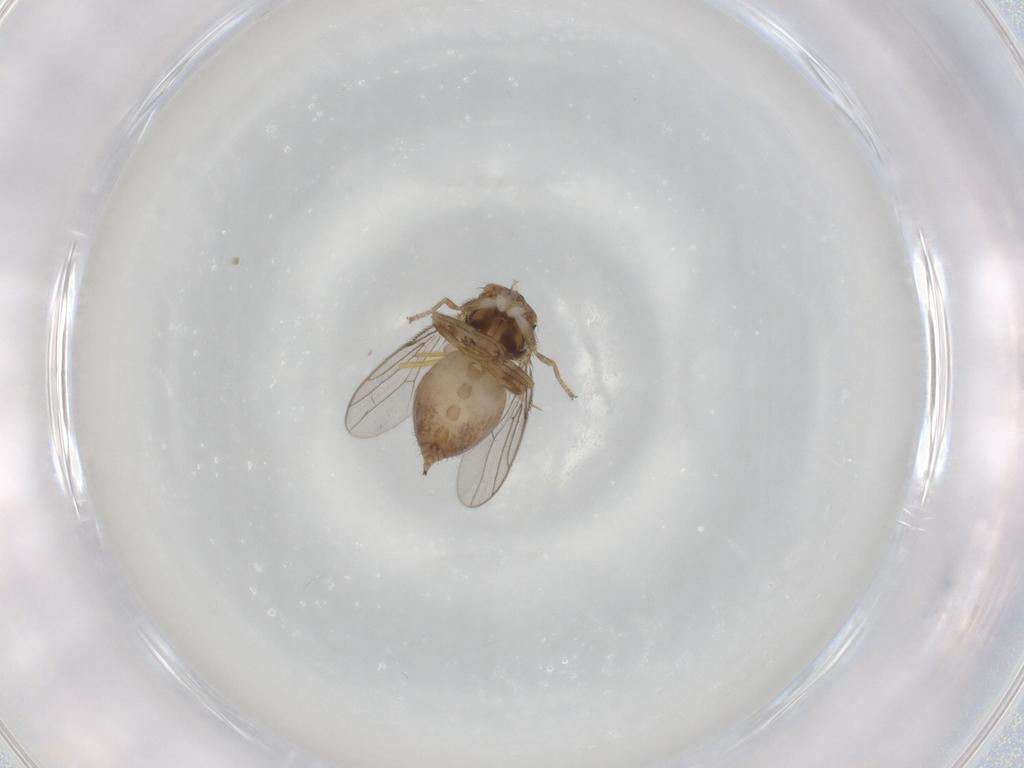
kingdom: Animalia
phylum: Arthropoda
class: Insecta
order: Diptera
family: Chloropidae
